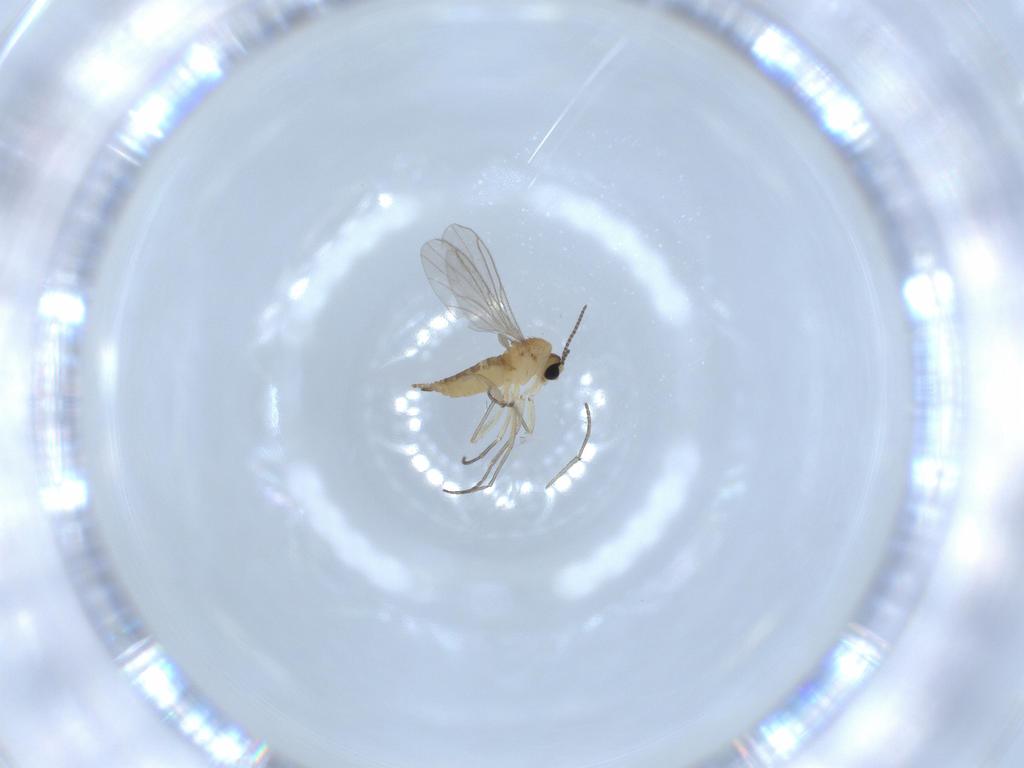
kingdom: Animalia
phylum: Arthropoda
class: Insecta
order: Diptera
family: Sciaridae
